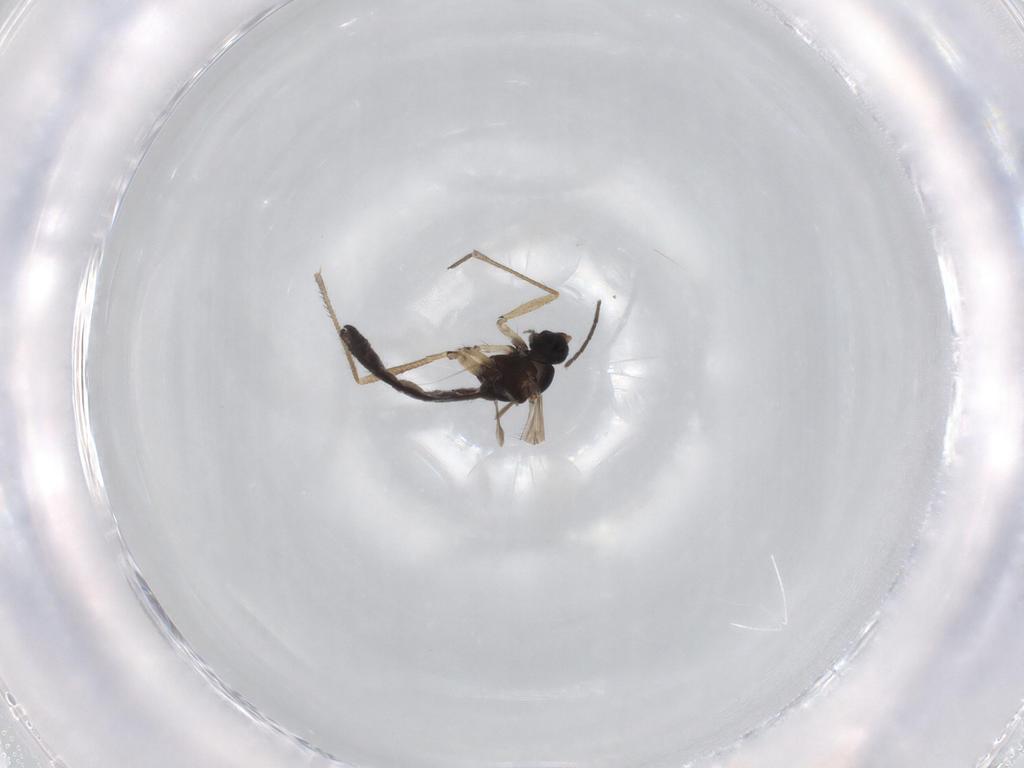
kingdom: Animalia
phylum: Arthropoda
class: Insecta
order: Diptera
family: Sciaridae
